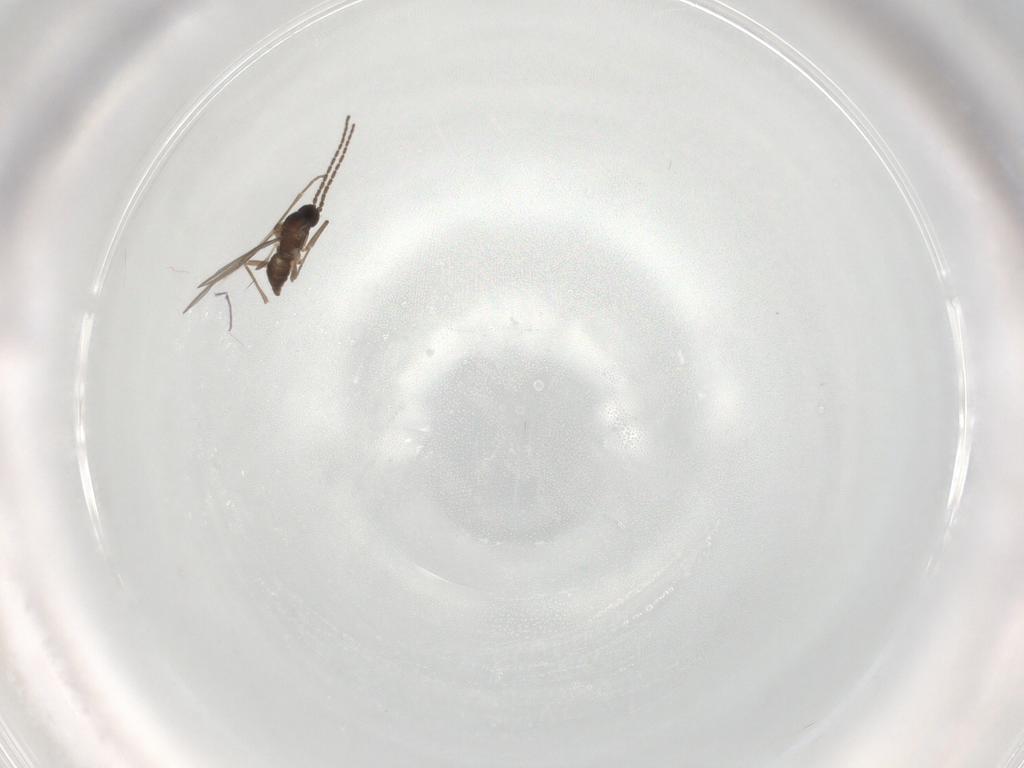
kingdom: Animalia
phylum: Arthropoda
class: Insecta
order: Diptera
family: Sciaridae
